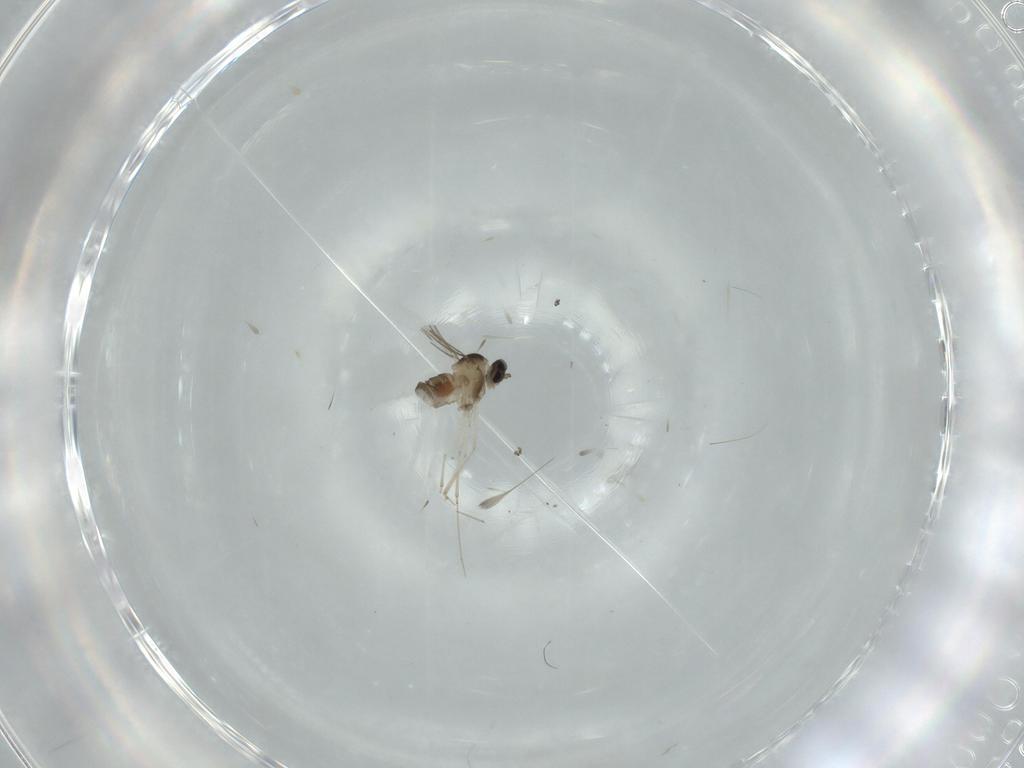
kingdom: Animalia
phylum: Arthropoda
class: Insecta
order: Diptera
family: Cecidomyiidae
